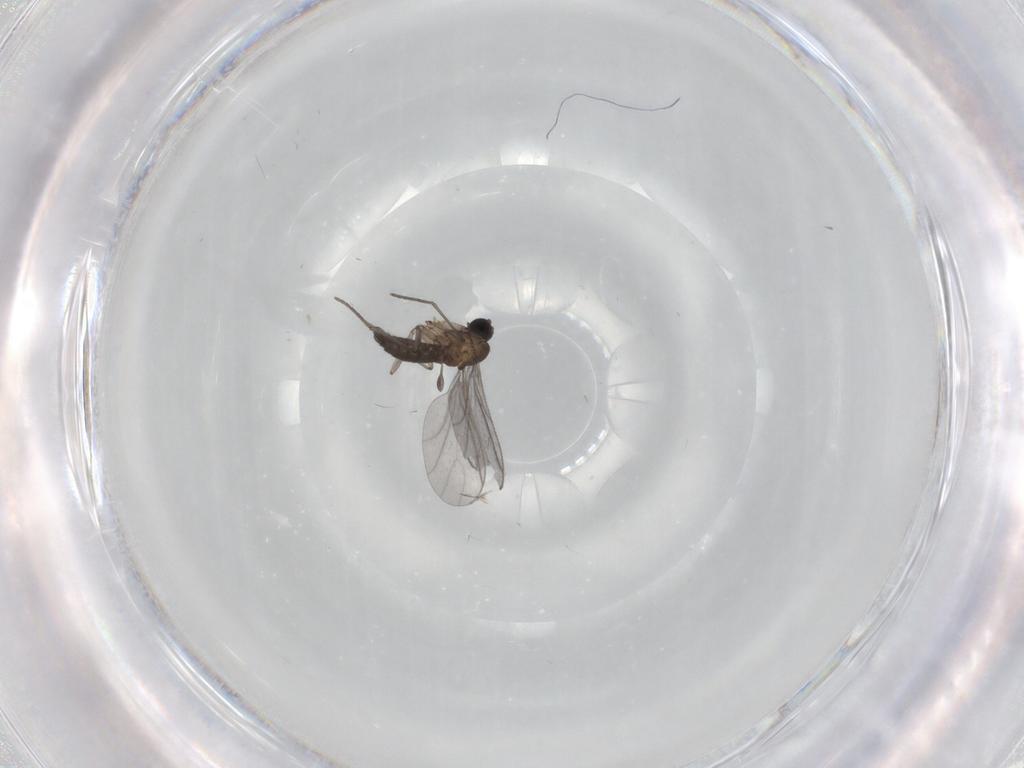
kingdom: Animalia
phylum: Arthropoda
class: Insecta
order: Diptera
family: Sciaridae
